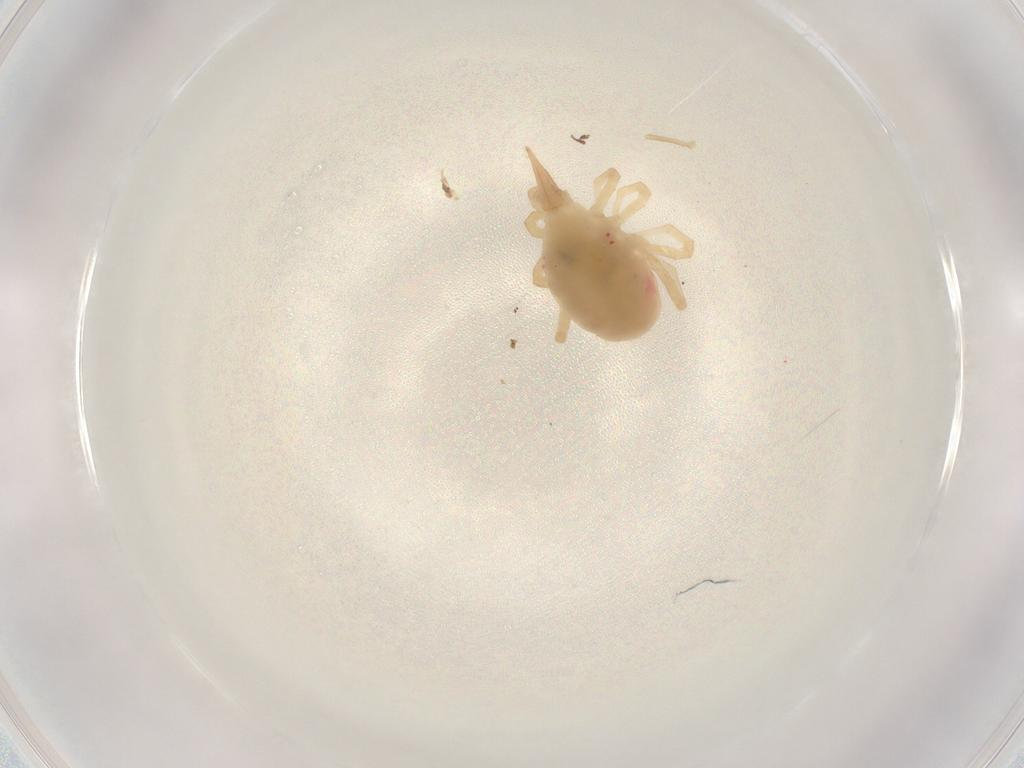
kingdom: Animalia
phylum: Arthropoda
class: Arachnida
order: Trombidiformes
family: Bdellidae
